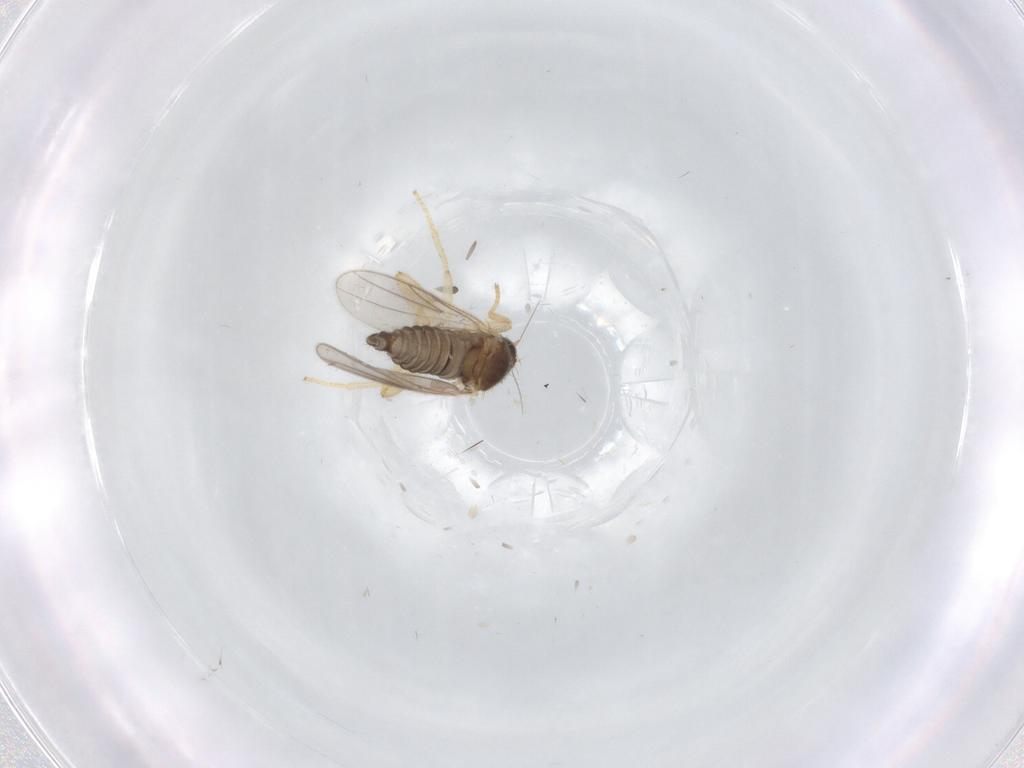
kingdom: Animalia
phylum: Arthropoda
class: Insecta
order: Diptera
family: Hybotidae
